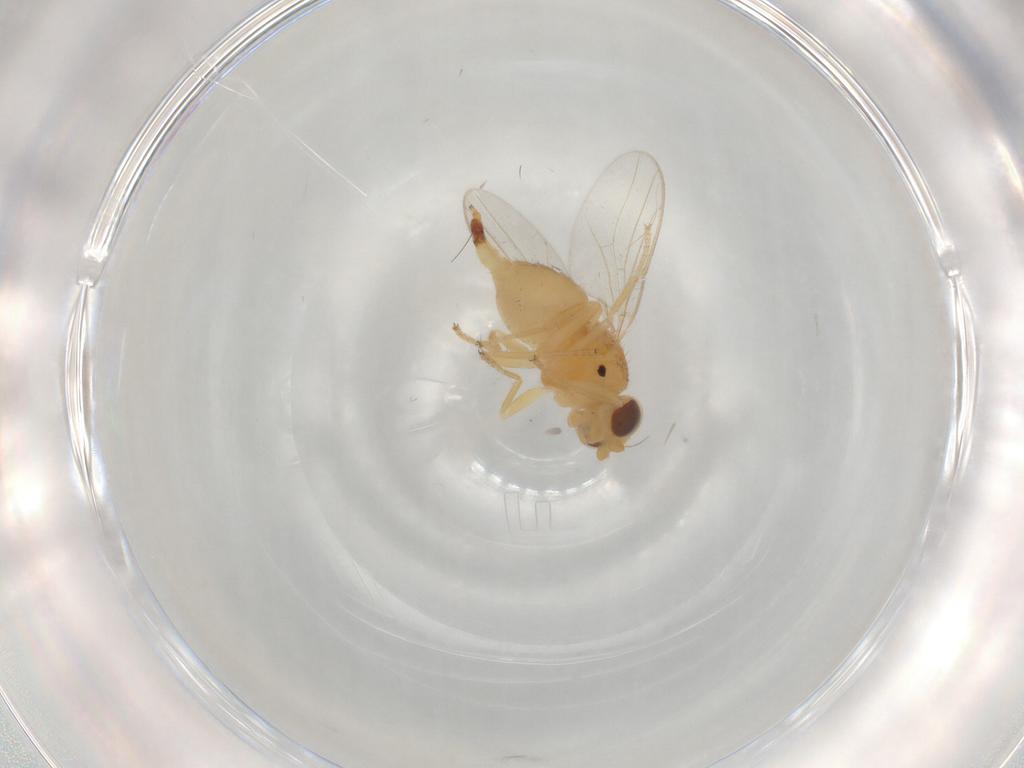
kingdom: Animalia
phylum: Arthropoda
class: Insecta
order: Diptera
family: Chloropidae
